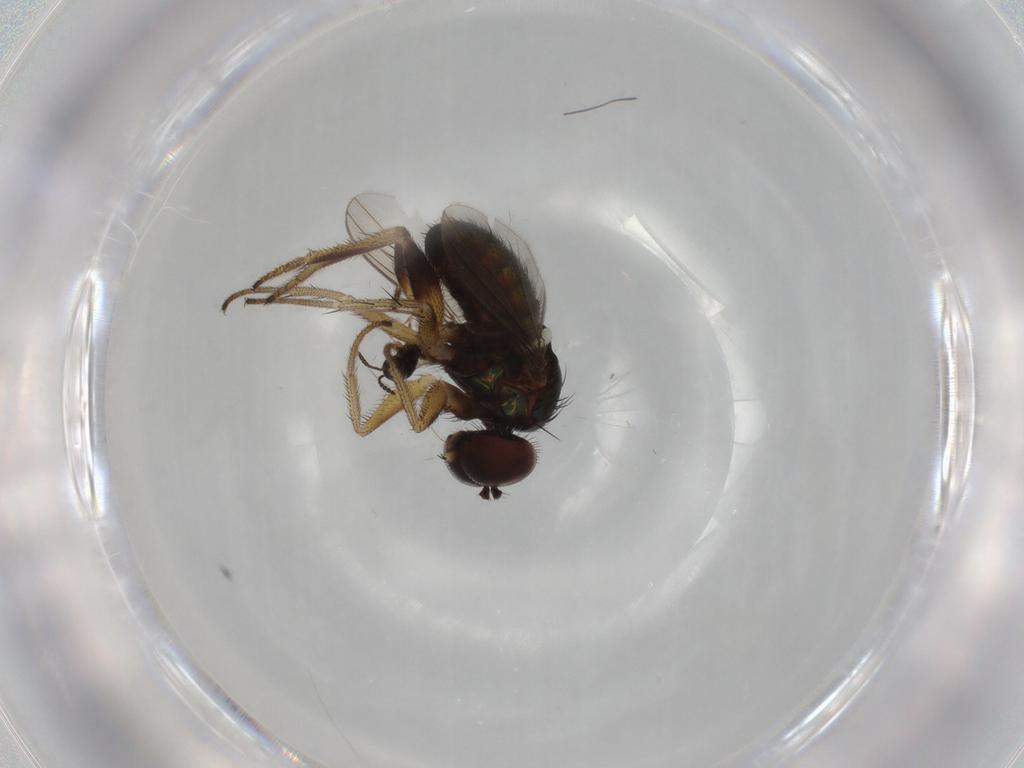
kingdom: Animalia
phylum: Arthropoda
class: Insecta
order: Diptera
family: Dolichopodidae
